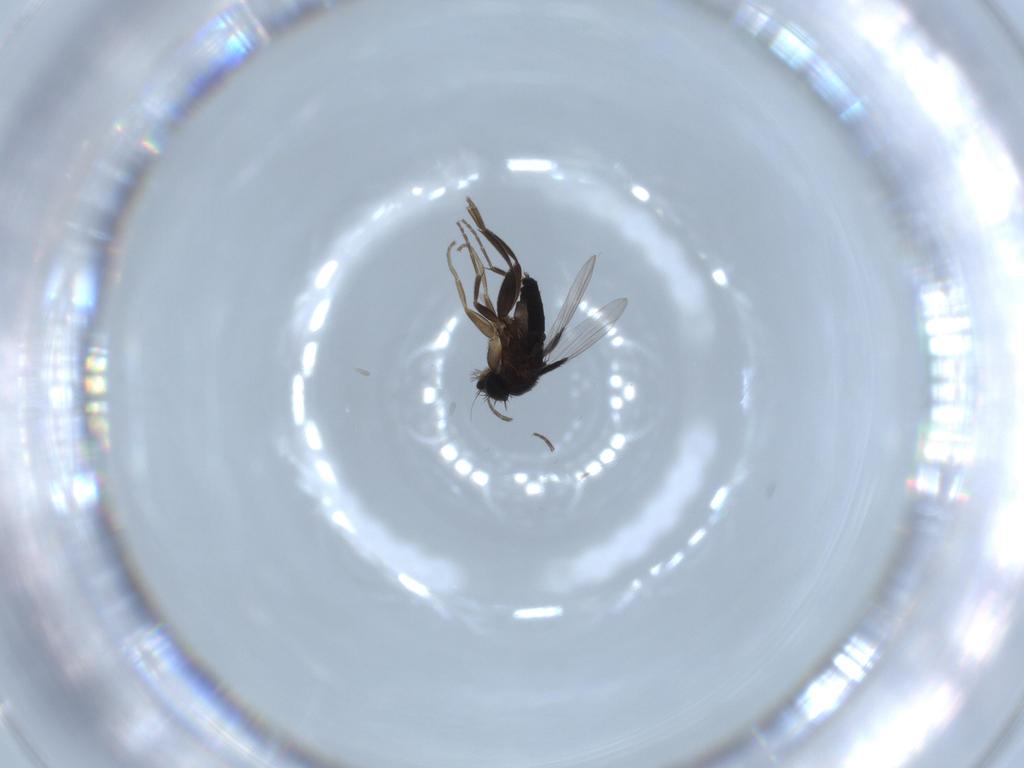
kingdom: Animalia
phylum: Arthropoda
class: Insecta
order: Diptera
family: Phoridae
